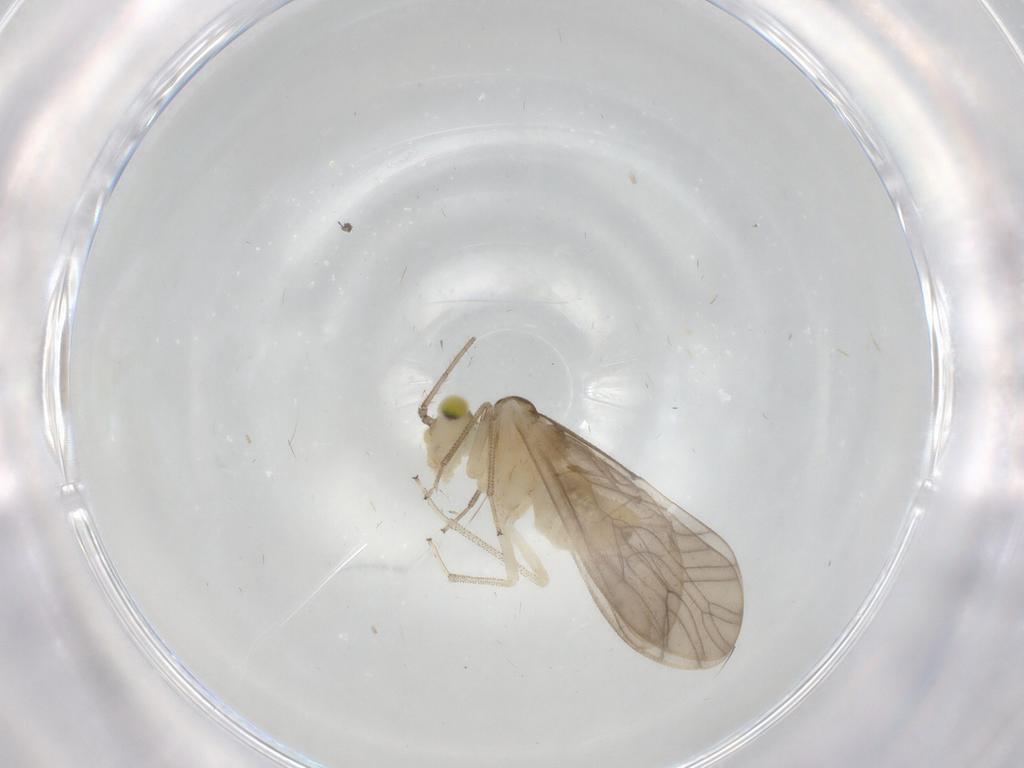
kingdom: Animalia
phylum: Arthropoda
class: Insecta
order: Psocodea
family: Caeciliusidae
